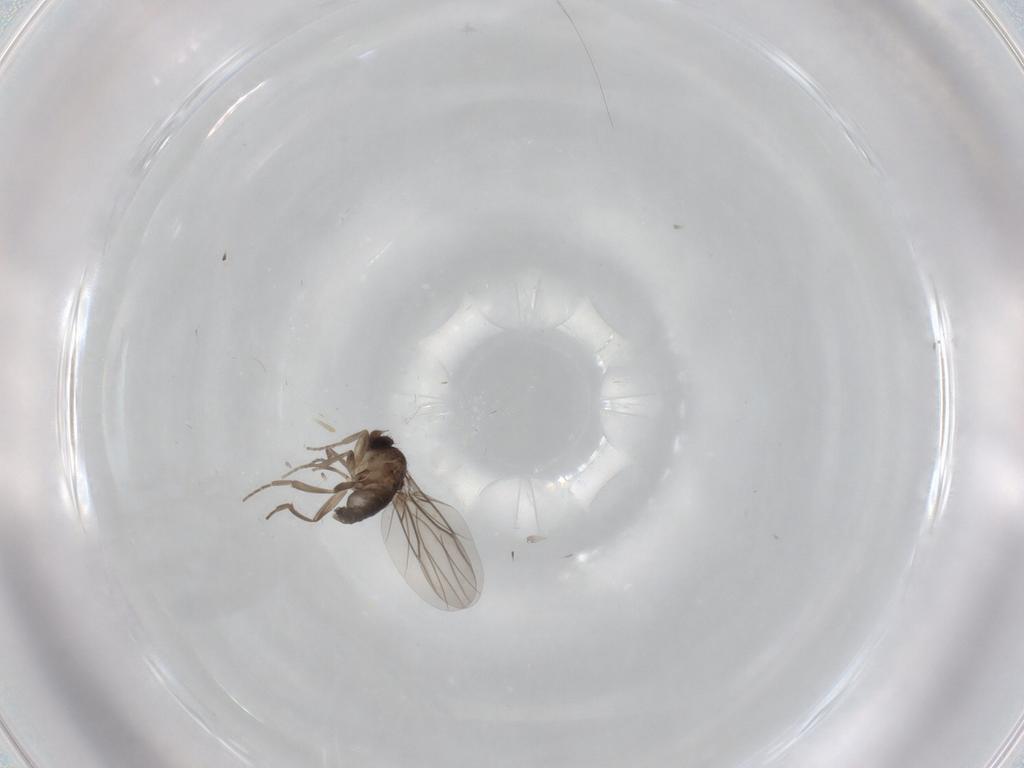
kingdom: Animalia
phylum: Arthropoda
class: Insecta
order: Diptera
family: Phoridae
